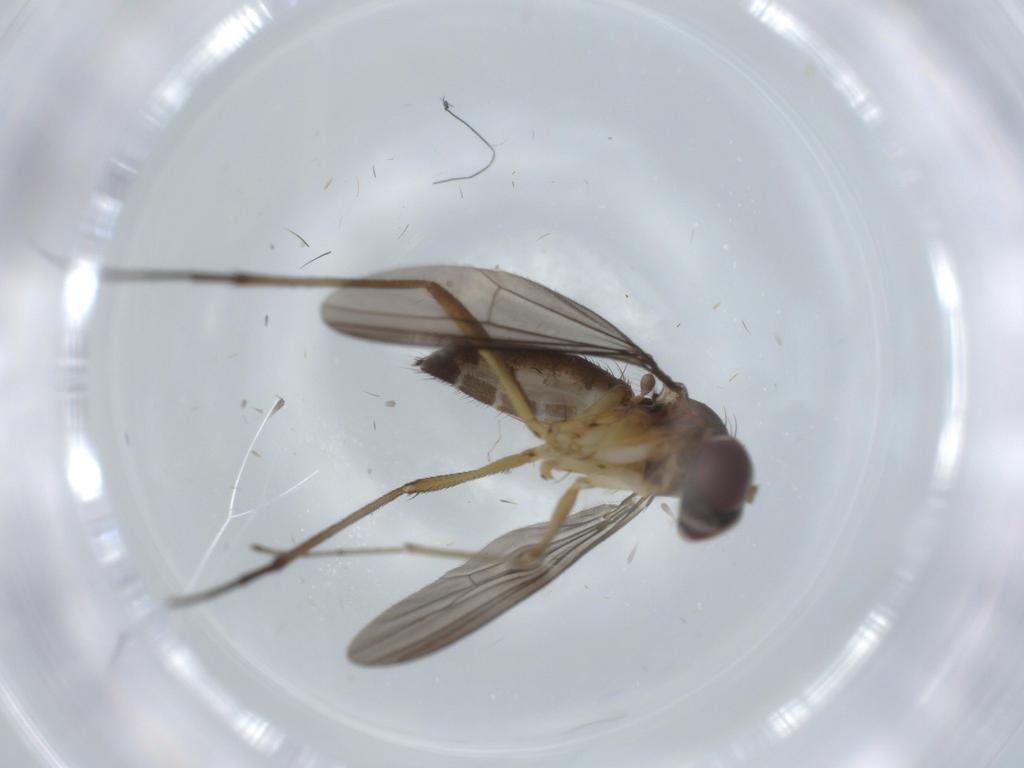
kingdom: Animalia
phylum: Arthropoda
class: Insecta
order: Diptera
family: Dolichopodidae
